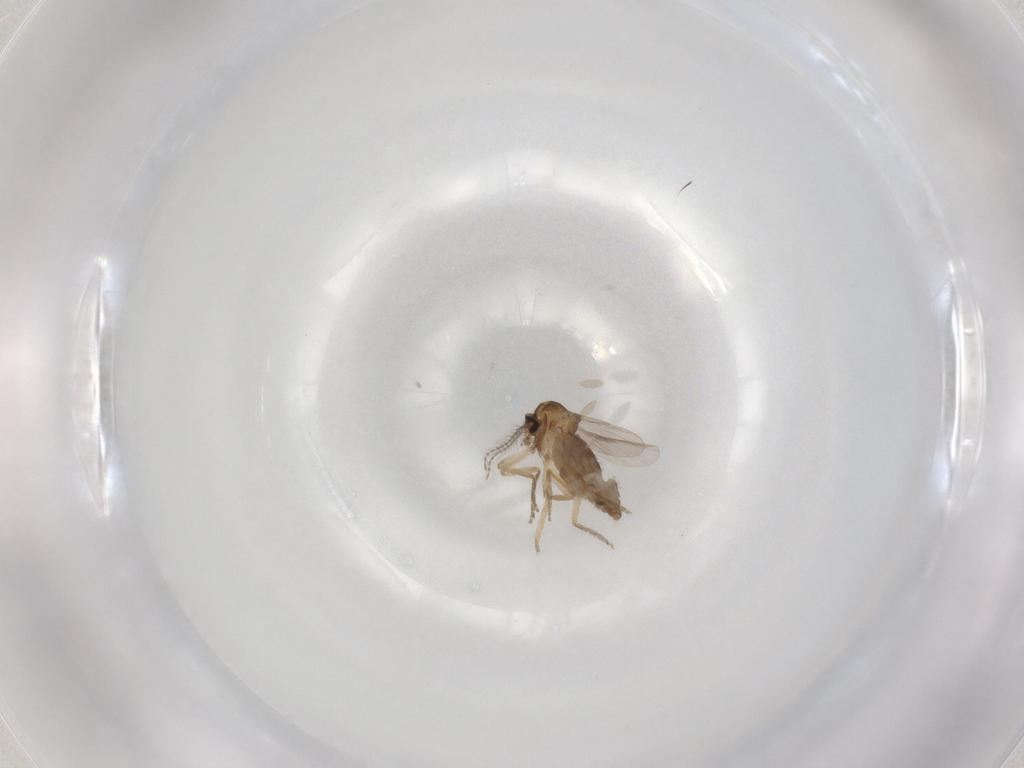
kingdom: Animalia
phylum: Arthropoda
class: Insecta
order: Diptera
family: Ceratopogonidae
